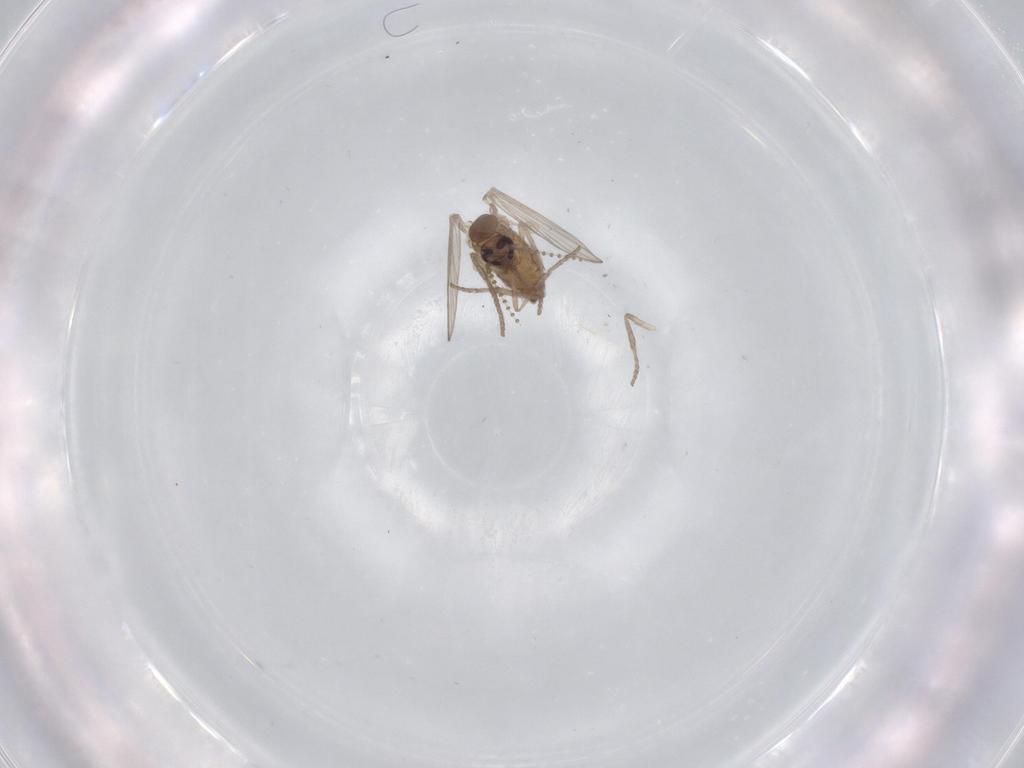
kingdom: Animalia
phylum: Arthropoda
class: Insecta
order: Diptera
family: Psychodidae
